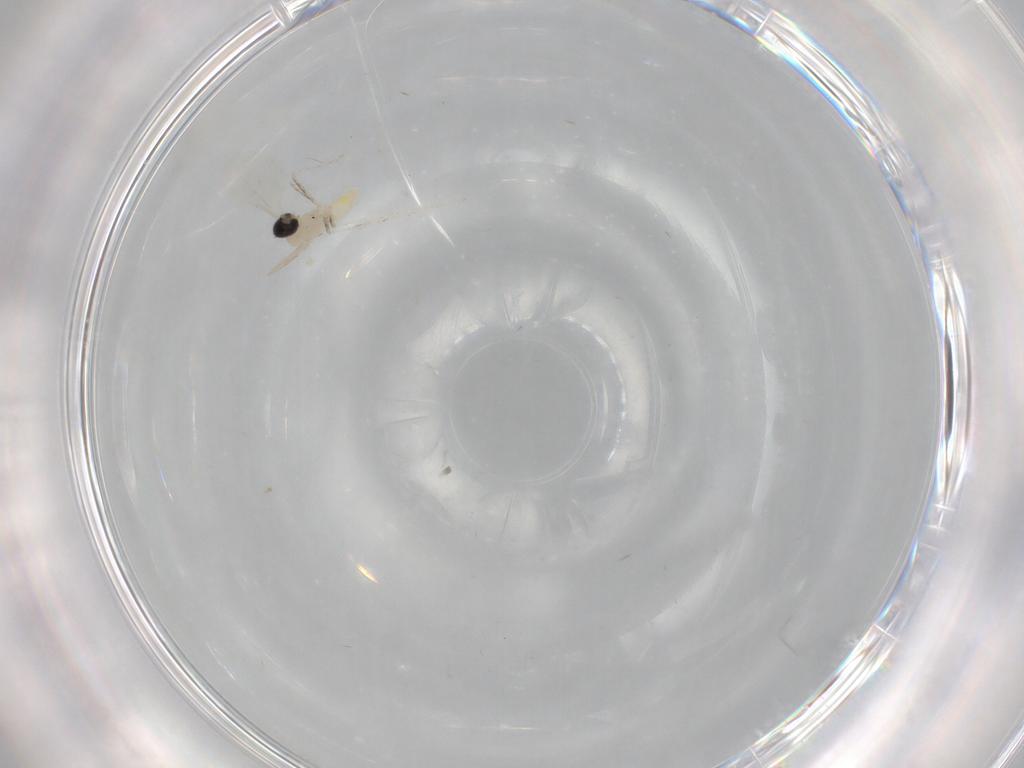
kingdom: Animalia
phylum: Arthropoda
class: Insecta
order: Diptera
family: Cecidomyiidae
